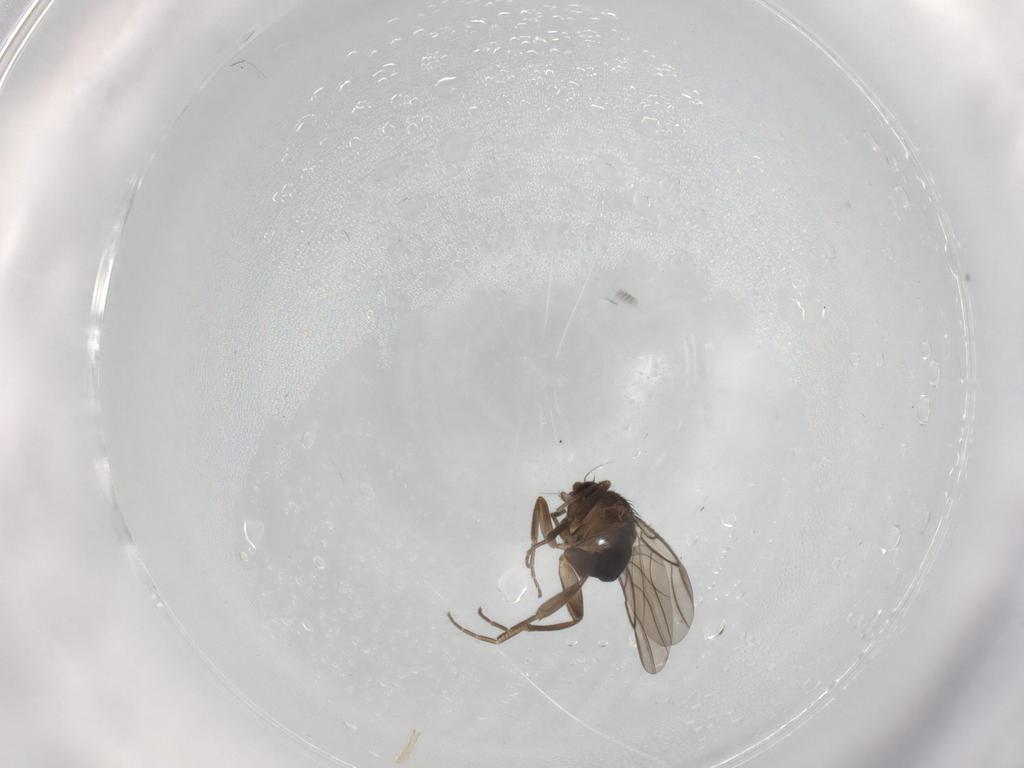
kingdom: Animalia
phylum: Arthropoda
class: Insecta
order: Diptera
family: Phoridae
